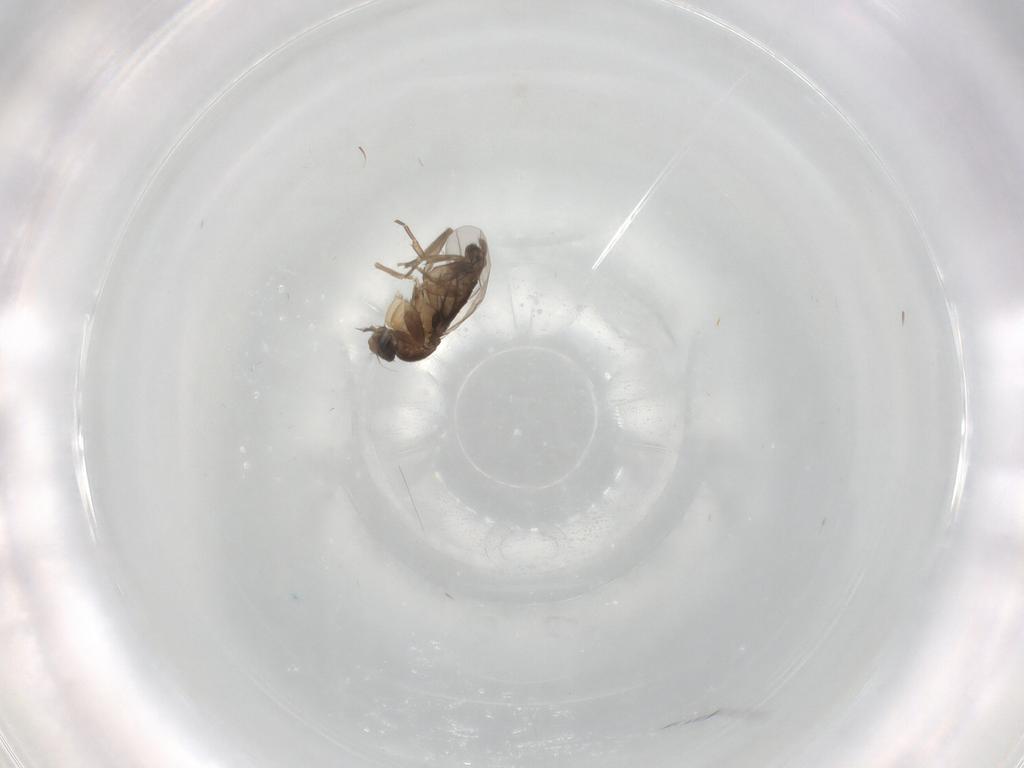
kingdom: Animalia
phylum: Arthropoda
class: Insecta
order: Diptera
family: Phoridae
